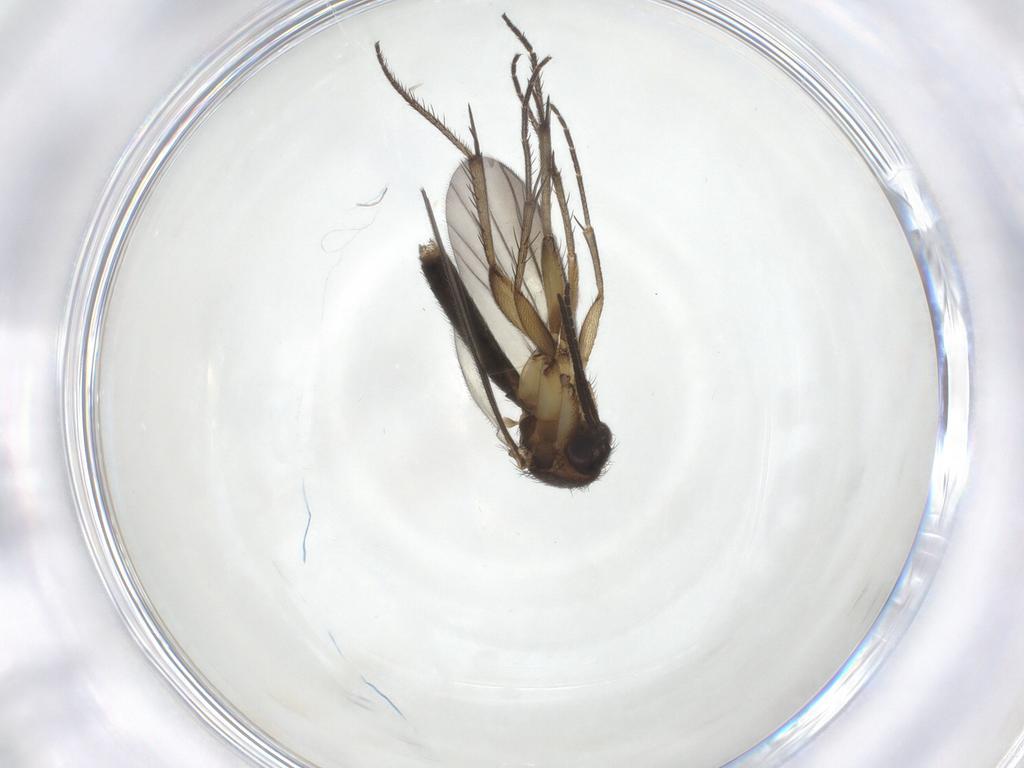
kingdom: Animalia
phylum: Arthropoda
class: Insecta
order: Diptera
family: Mycetophilidae
